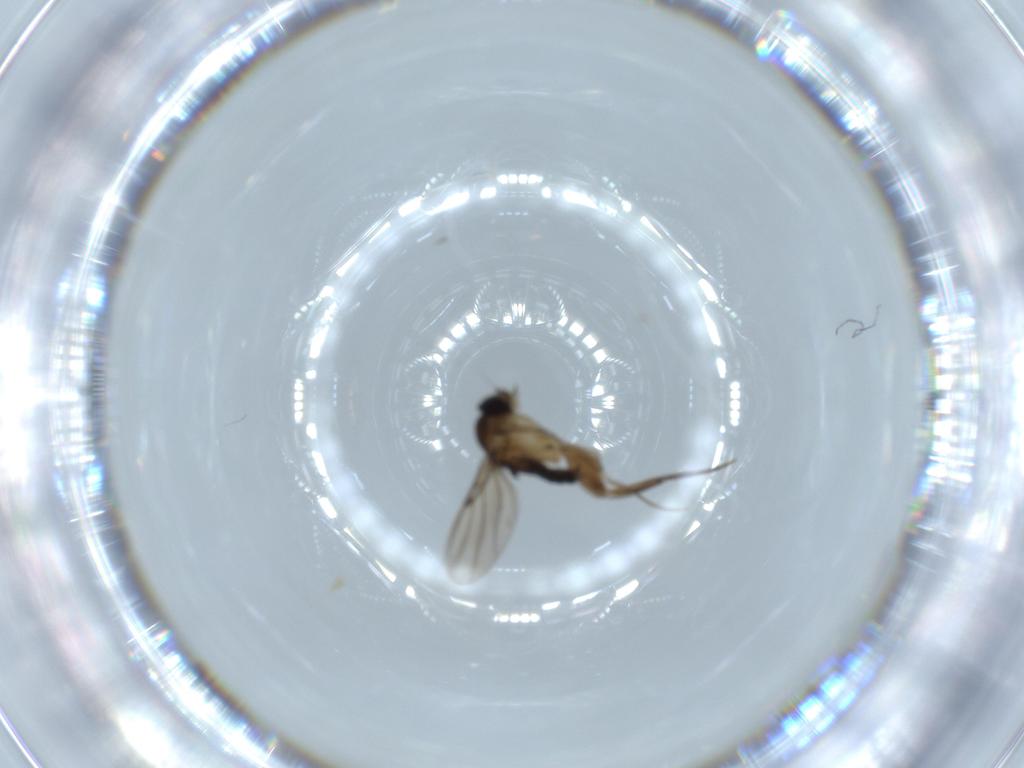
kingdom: Animalia
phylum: Arthropoda
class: Insecta
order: Diptera
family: Phoridae
